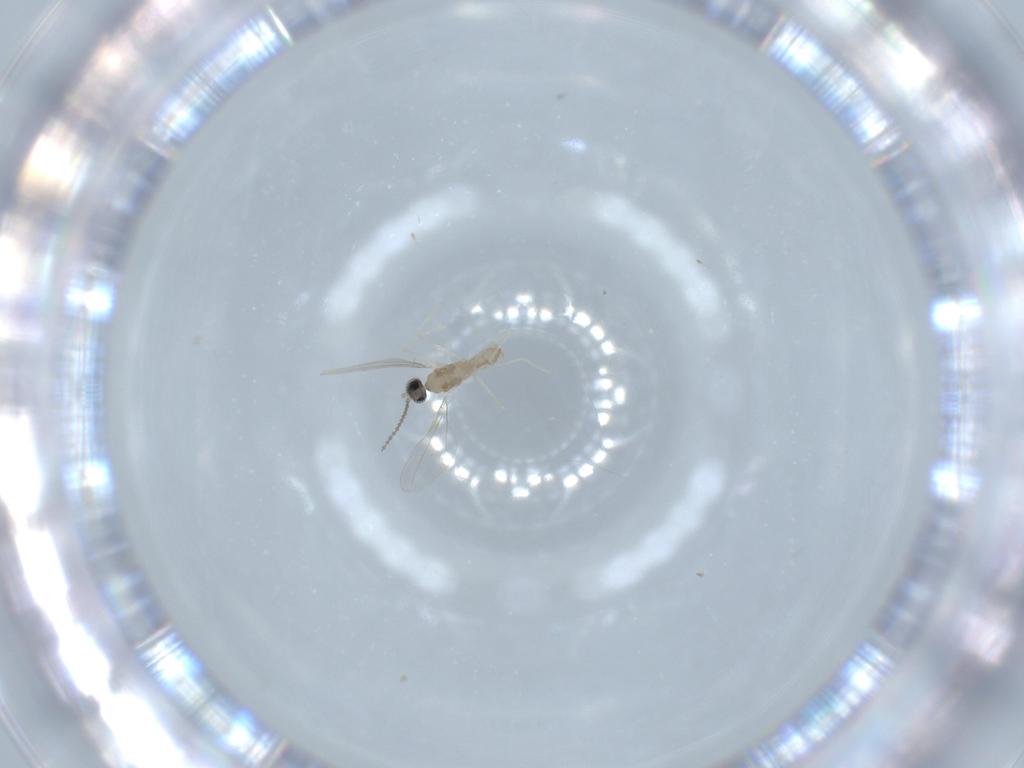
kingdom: Animalia
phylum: Arthropoda
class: Insecta
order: Diptera
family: Cecidomyiidae
